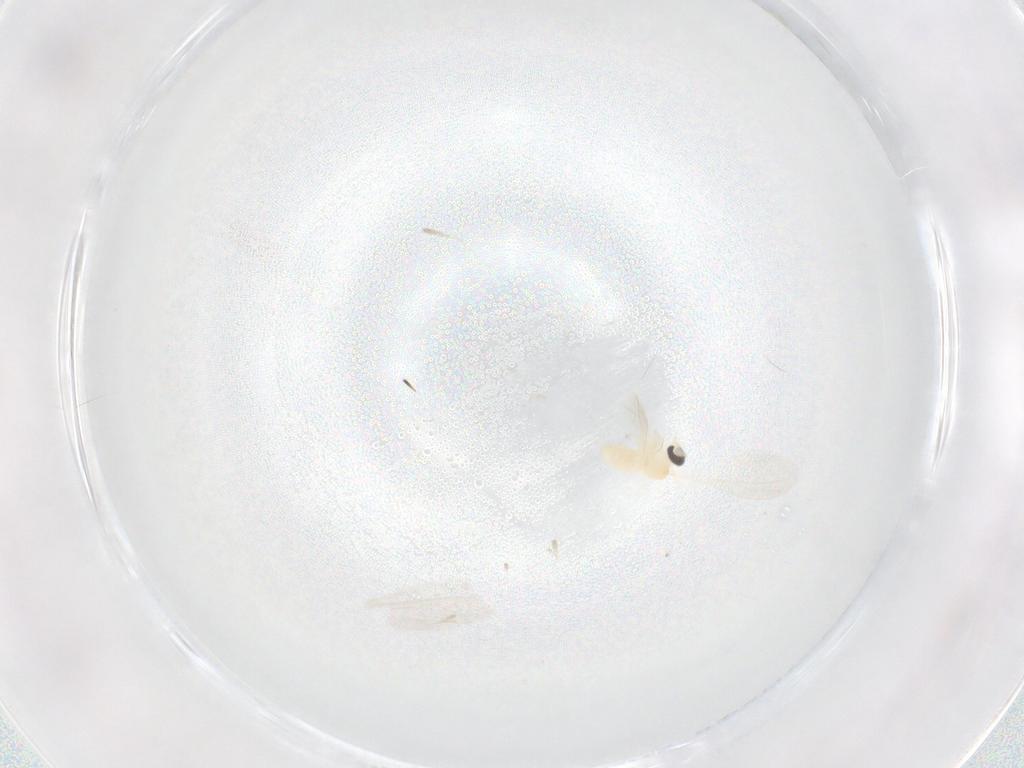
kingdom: Animalia
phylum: Arthropoda
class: Insecta
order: Diptera
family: Cecidomyiidae
